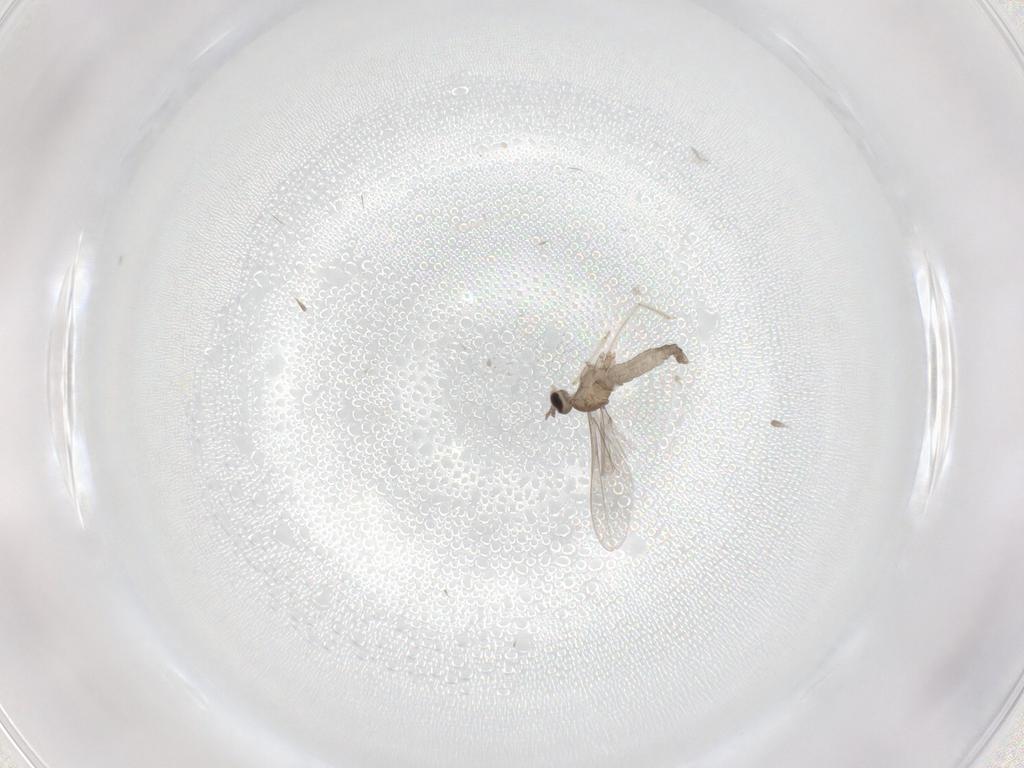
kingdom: Animalia
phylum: Arthropoda
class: Insecta
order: Diptera
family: Cecidomyiidae
